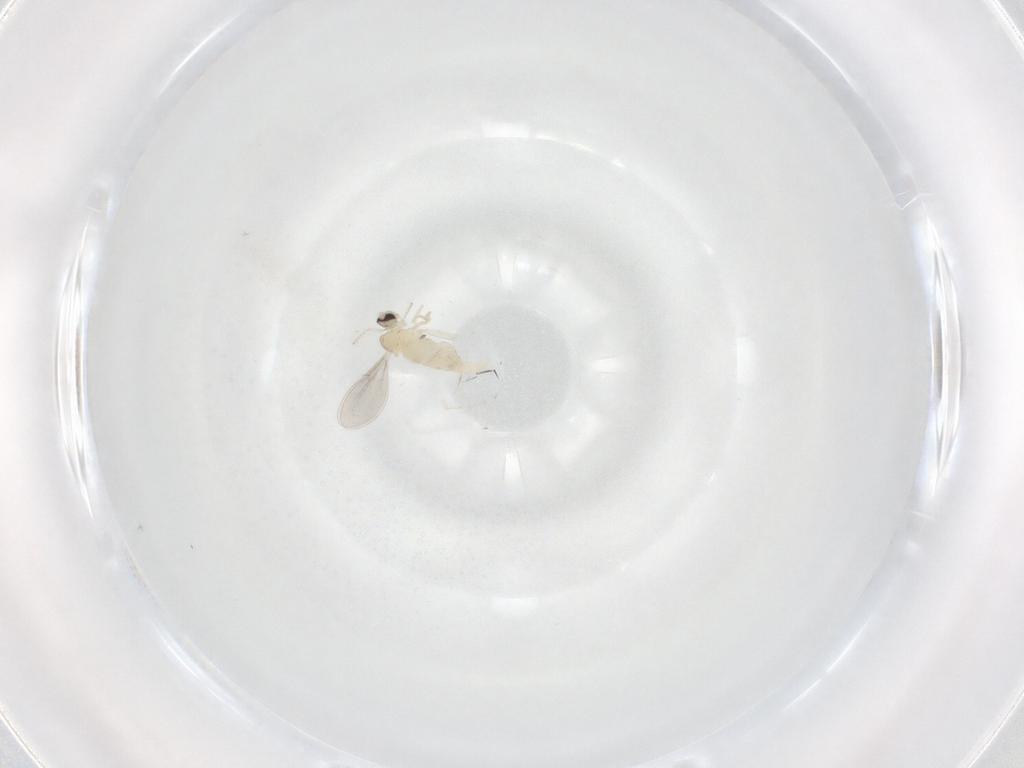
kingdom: Animalia
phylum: Arthropoda
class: Insecta
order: Diptera
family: Cecidomyiidae
